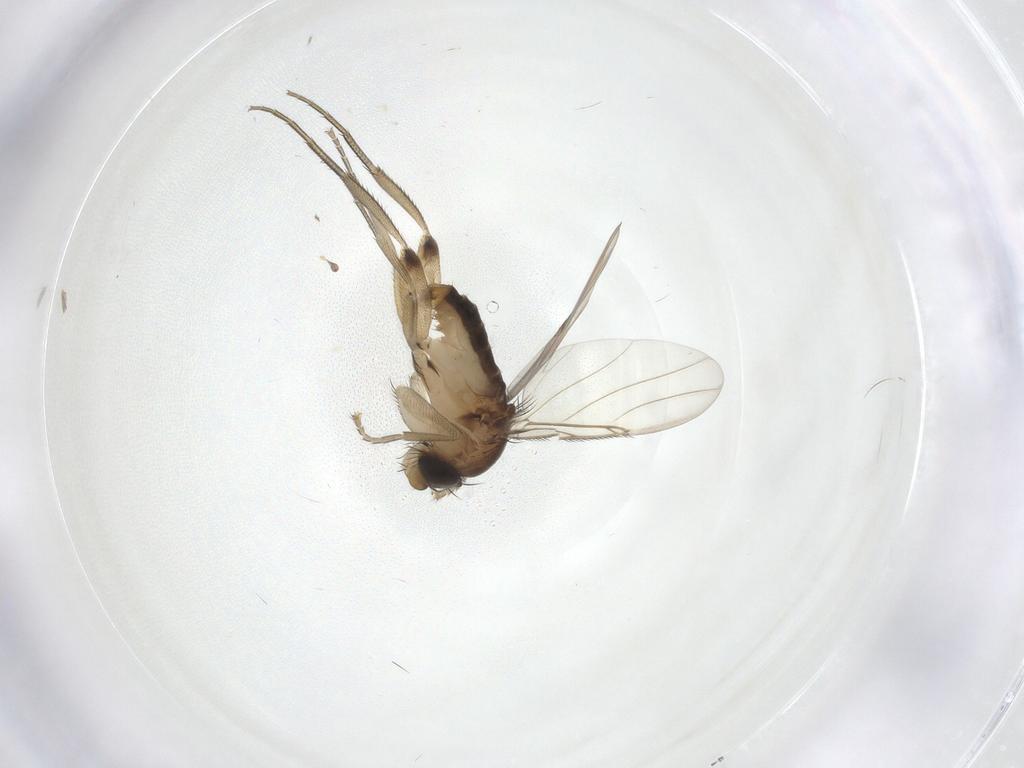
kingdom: Animalia
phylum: Arthropoda
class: Insecta
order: Diptera
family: Phoridae
